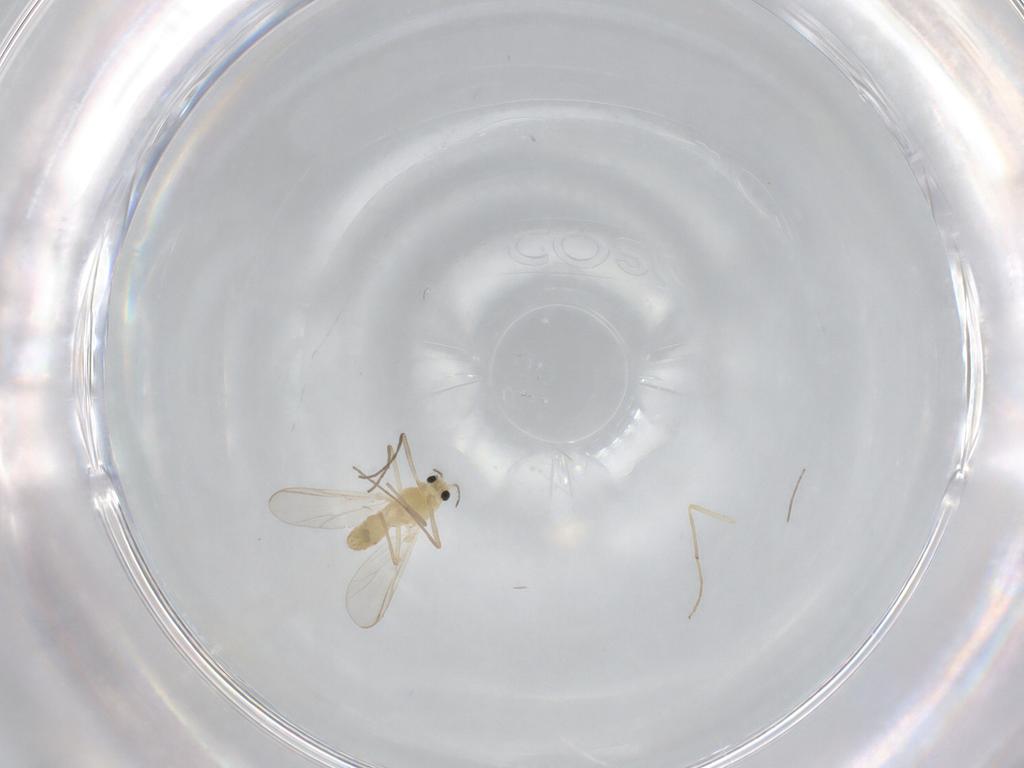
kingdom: Animalia
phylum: Arthropoda
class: Insecta
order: Diptera
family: Chironomidae
